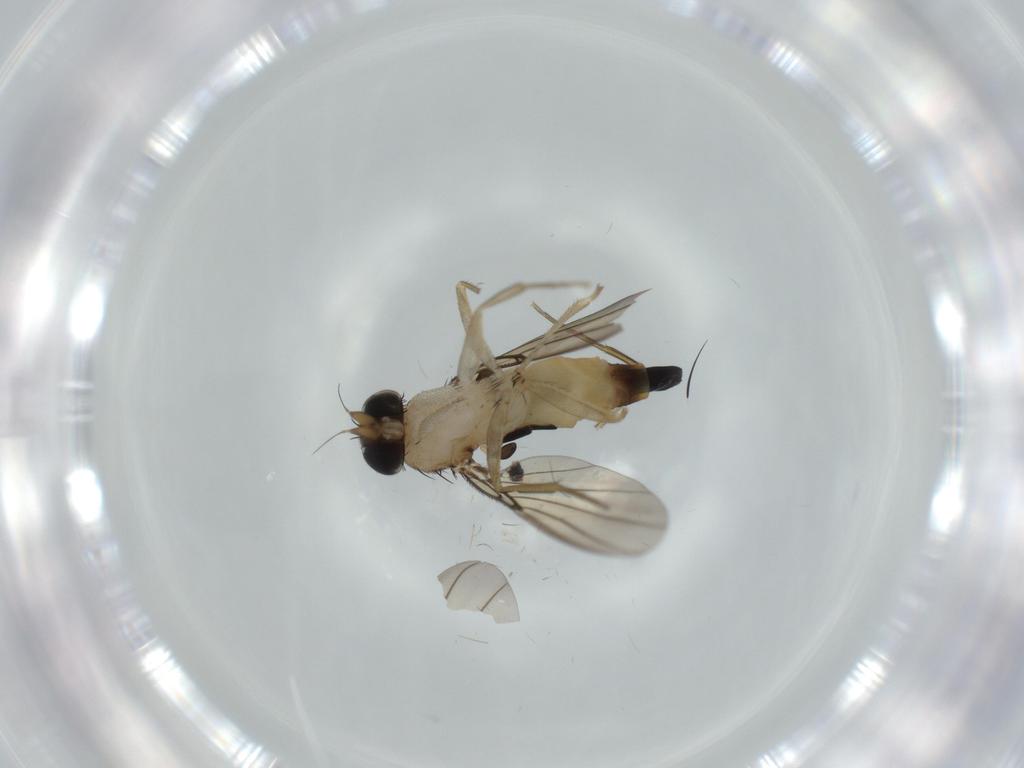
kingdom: Animalia
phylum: Arthropoda
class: Insecta
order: Diptera
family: Phoridae
